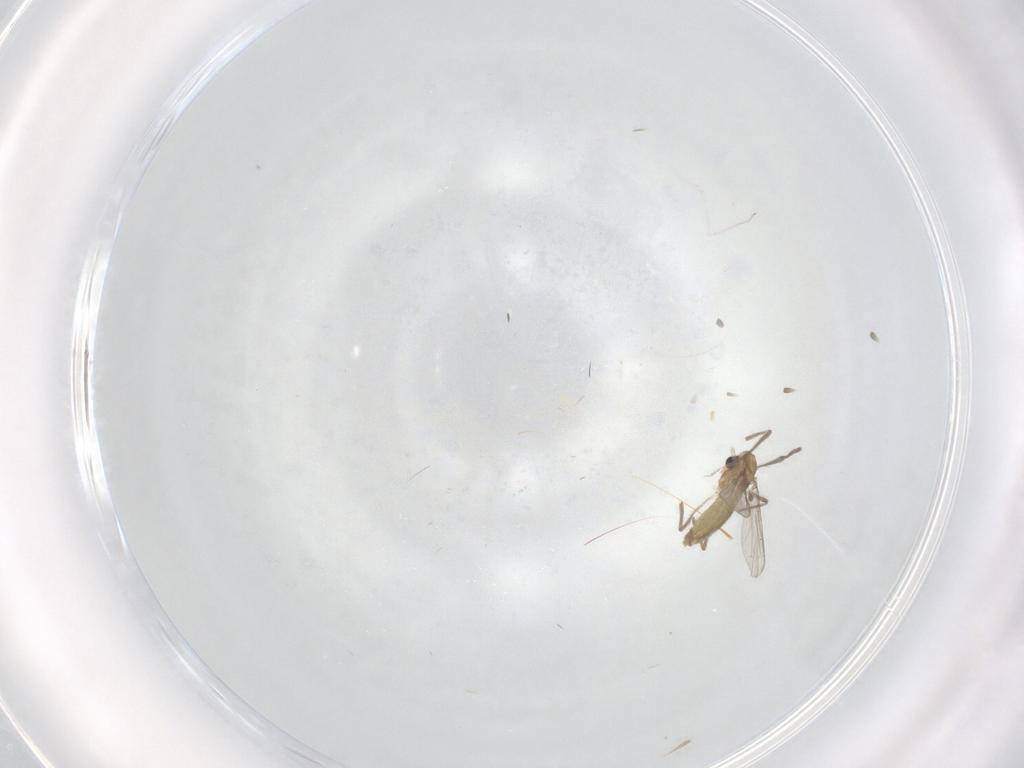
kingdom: Animalia
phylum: Arthropoda
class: Insecta
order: Diptera
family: Chironomidae
